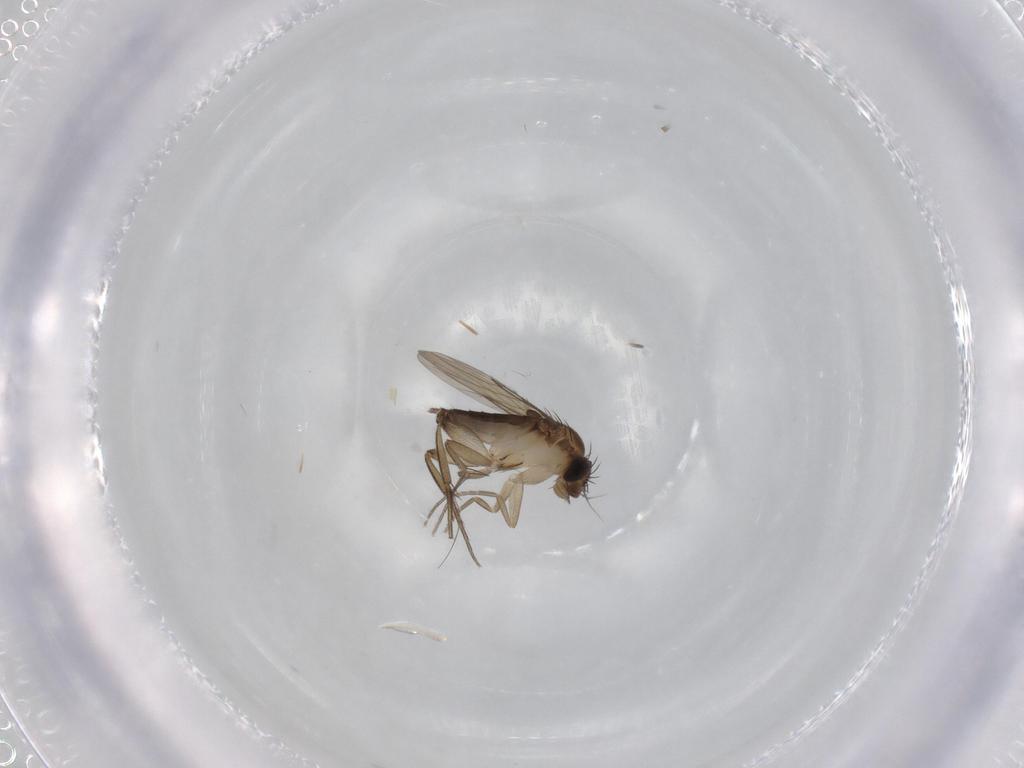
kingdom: Animalia
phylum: Arthropoda
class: Insecta
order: Diptera
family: Phoridae
